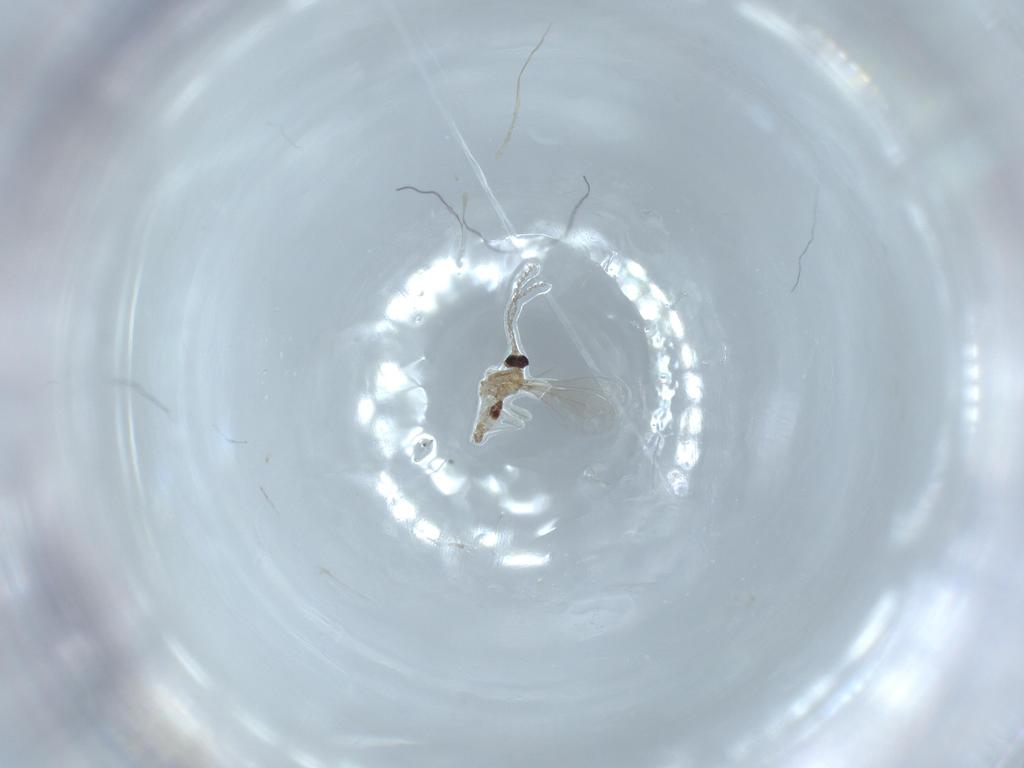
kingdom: Animalia
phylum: Arthropoda
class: Insecta
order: Diptera
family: Cecidomyiidae
